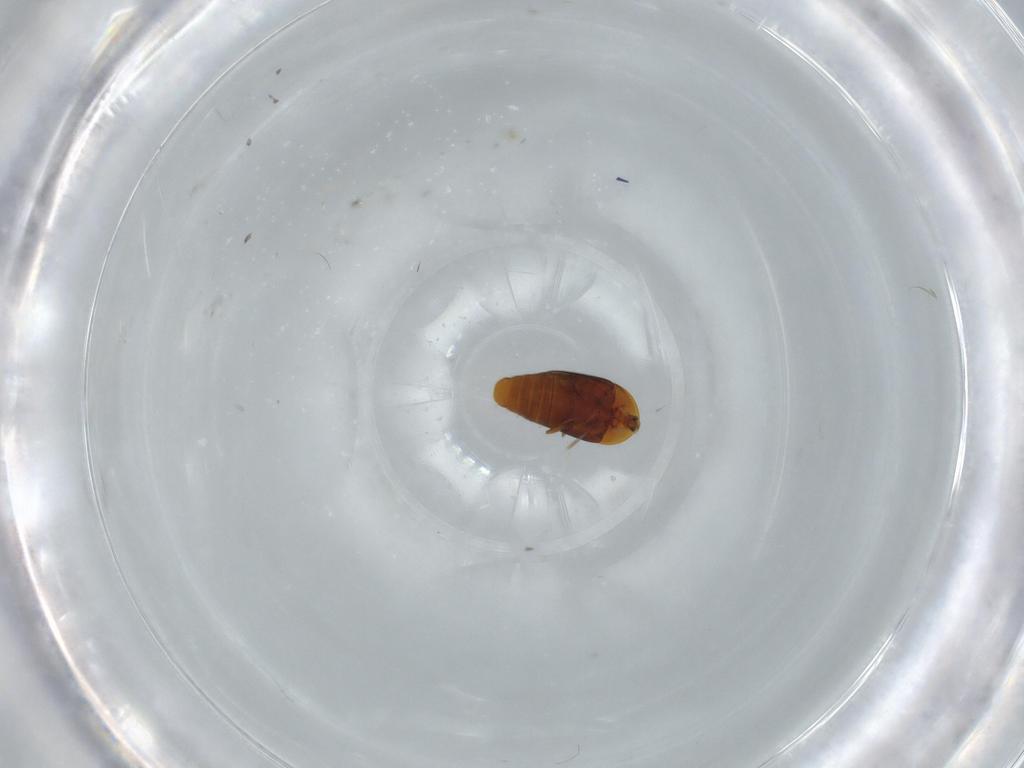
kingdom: Animalia
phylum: Arthropoda
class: Insecta
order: Coleoptera
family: Corylophidae
